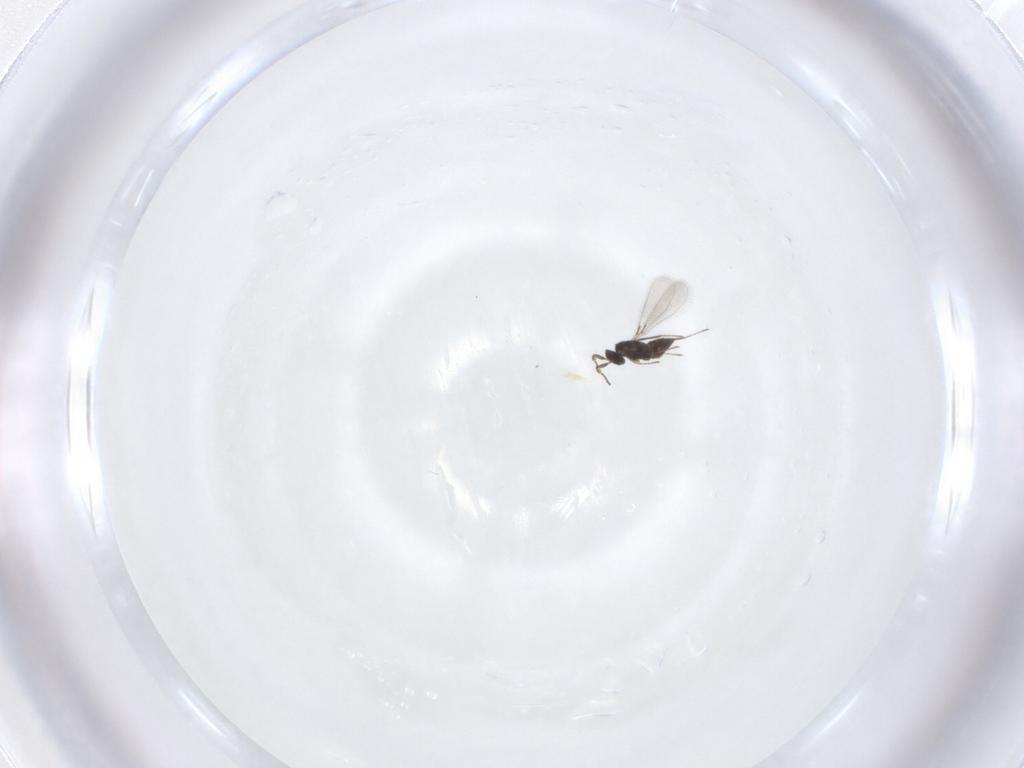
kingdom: Animalia
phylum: Arthropoda
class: Insecta
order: Hymenoptera
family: Mymaridae
